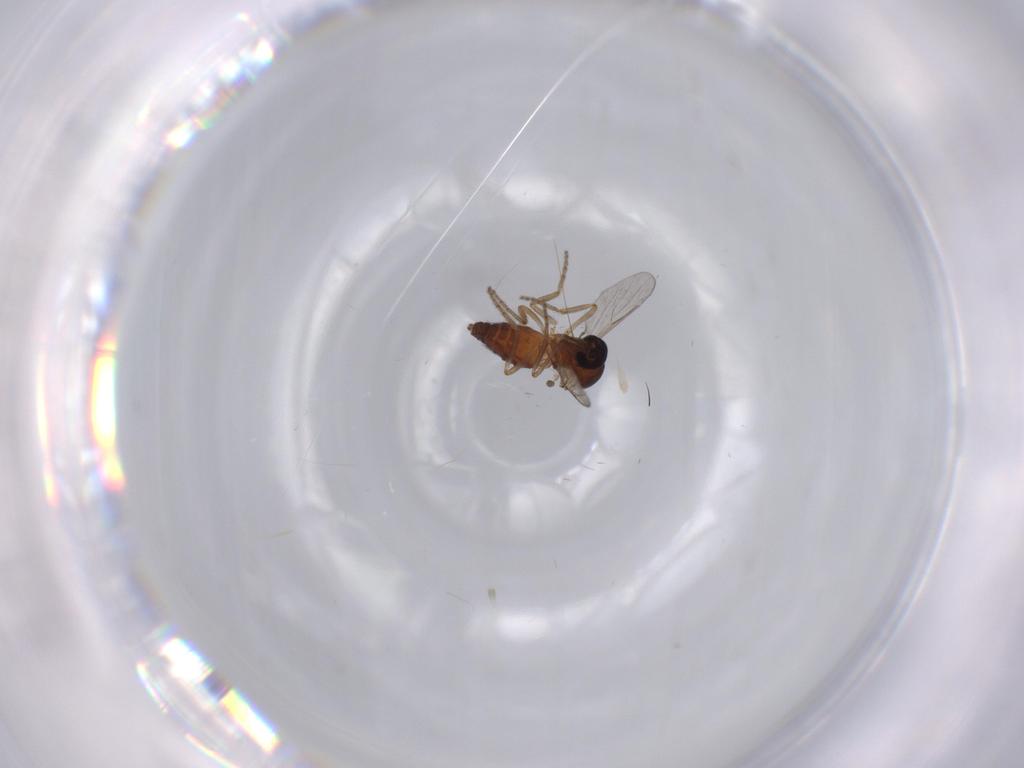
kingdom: Animalia
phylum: Arthropoda
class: Insecta
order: Diptera
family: Ceratopogonidae
